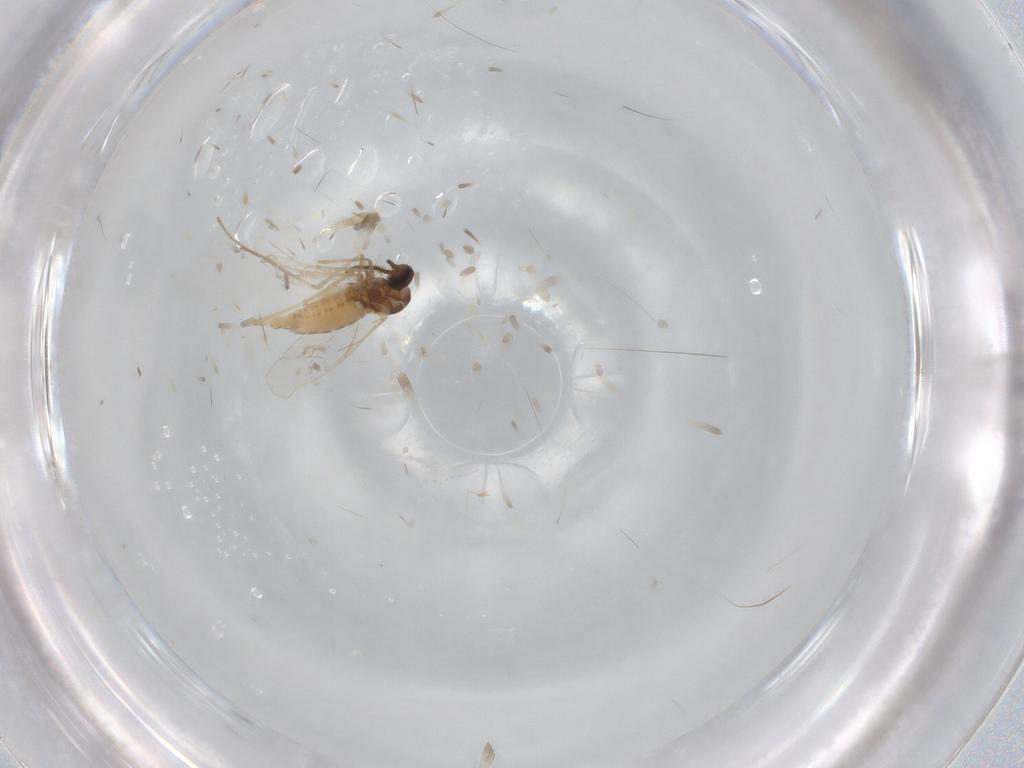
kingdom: Animalia
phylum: Arthropoda
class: Insecta
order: Diptera
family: Cecidomyiidae
